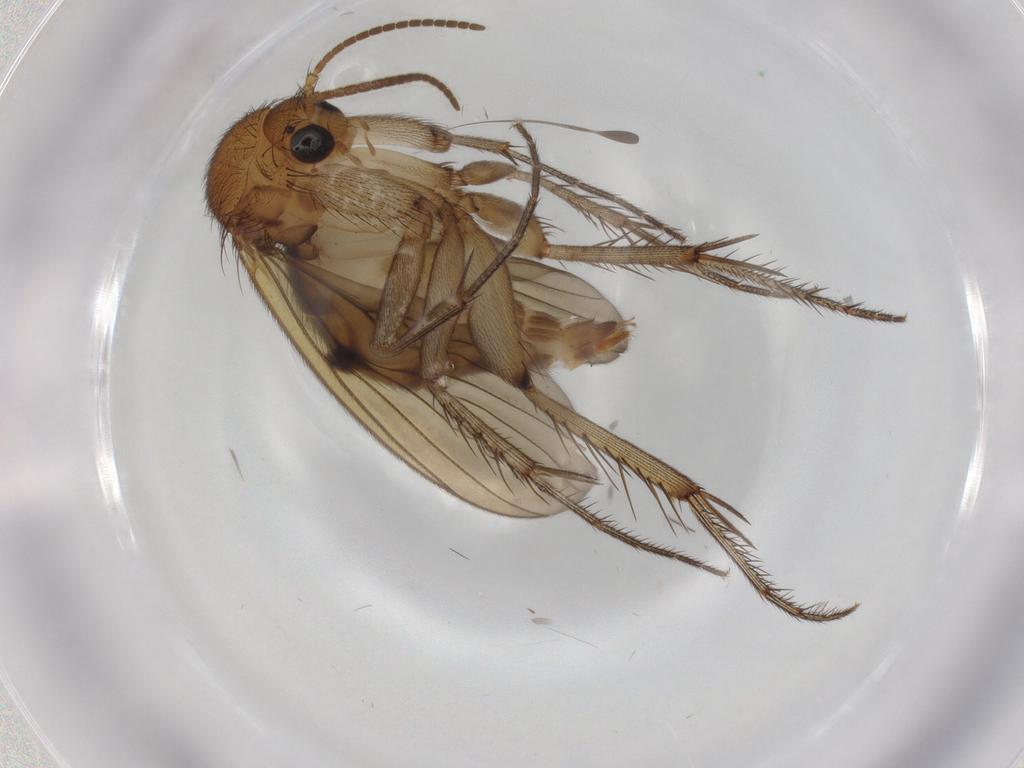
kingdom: Animalia
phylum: Arthropoda
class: Insecta
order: Diptera
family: Mycetophilidae
